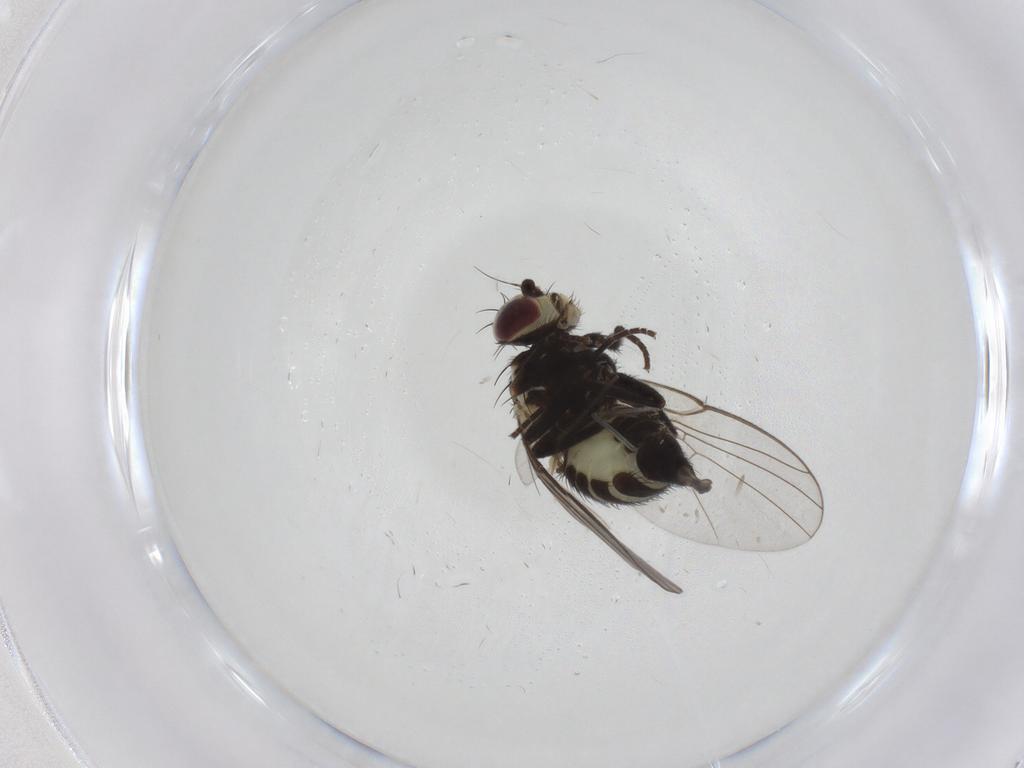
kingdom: Animalia
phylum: Arthropoda
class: Insecta
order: Diptera
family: Agromyzidae
